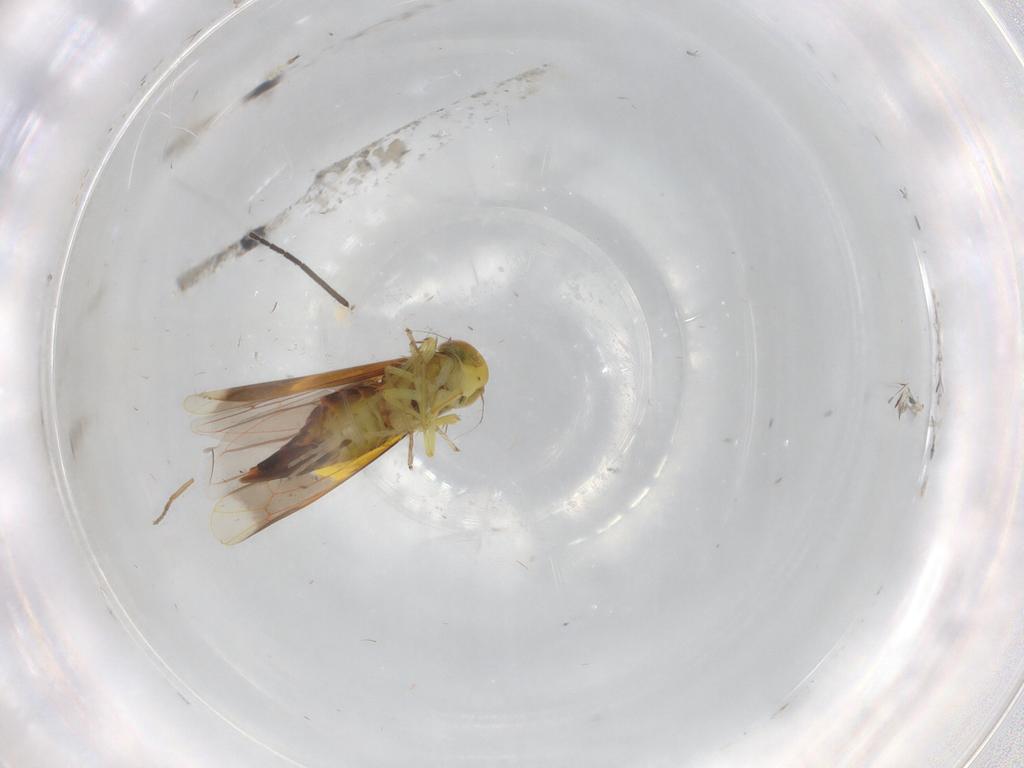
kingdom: Animalia
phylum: Arthropoda
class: Insecta
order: Hemiptera
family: Cicadellidae
